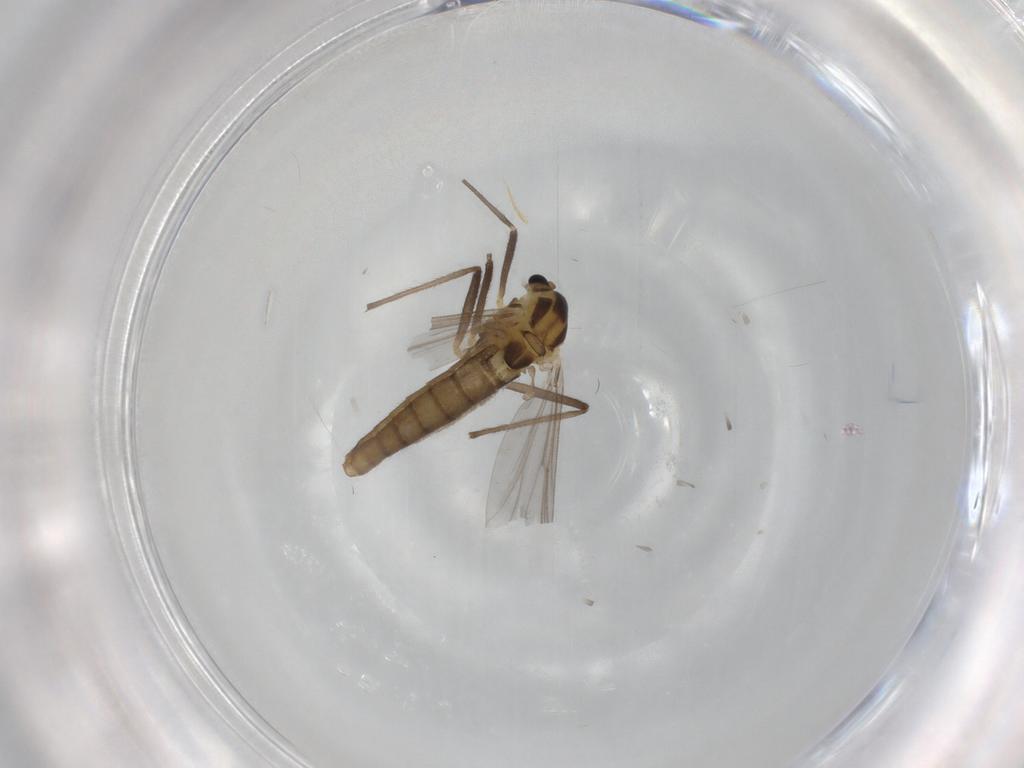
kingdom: Animalia
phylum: Arthropoda
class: Insecta
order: Diptera
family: Chironomidae
